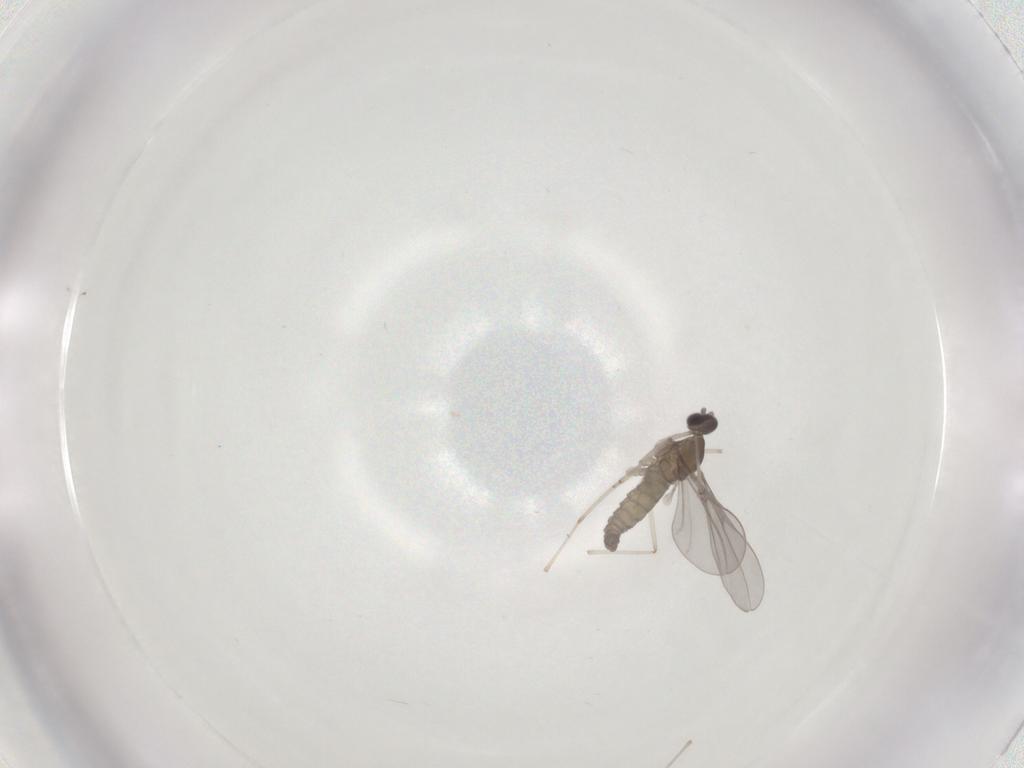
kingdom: Animalia
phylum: Arthropoda
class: Insecta
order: Diptera
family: Cecidomyiidae
